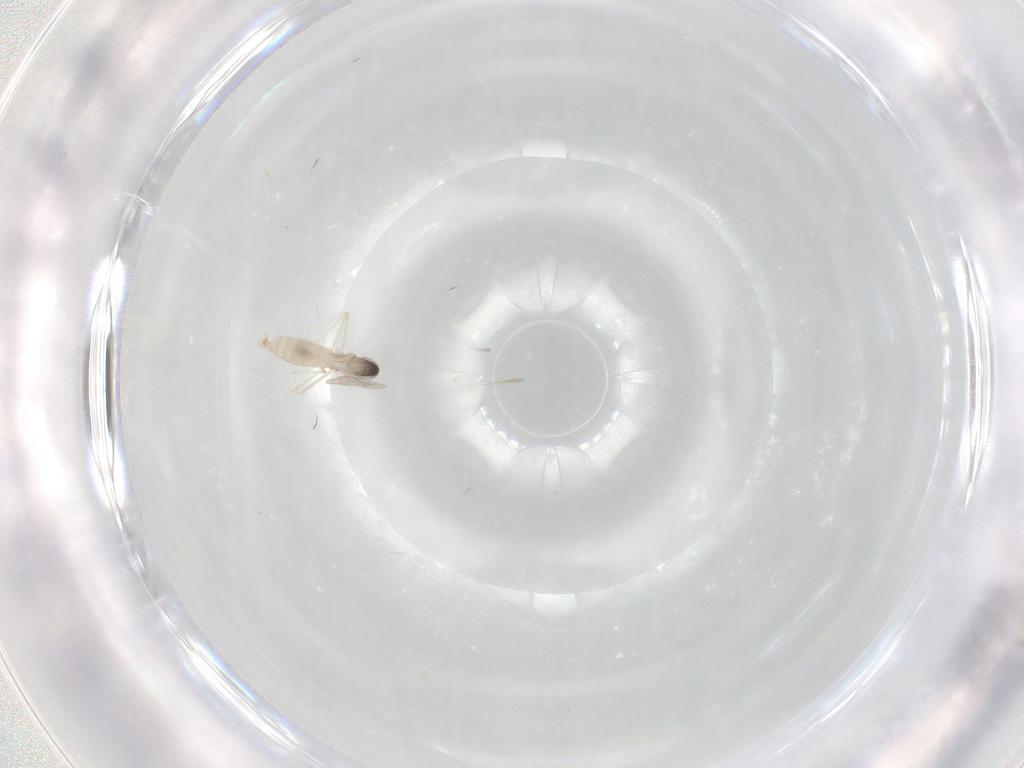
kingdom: Animalia
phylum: Arthropoda
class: Insecta
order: Diptera
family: Cecidomyiidae
